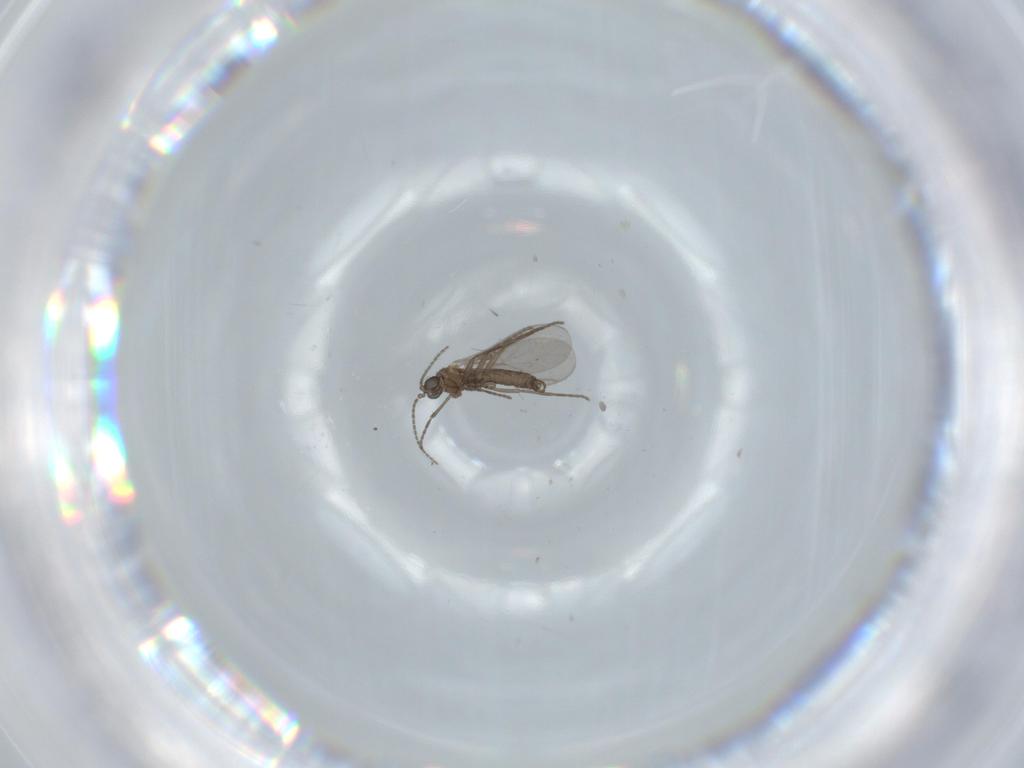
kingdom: Animalia
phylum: Arthropoda
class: Insecta
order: Diptera
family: Sciaridae
